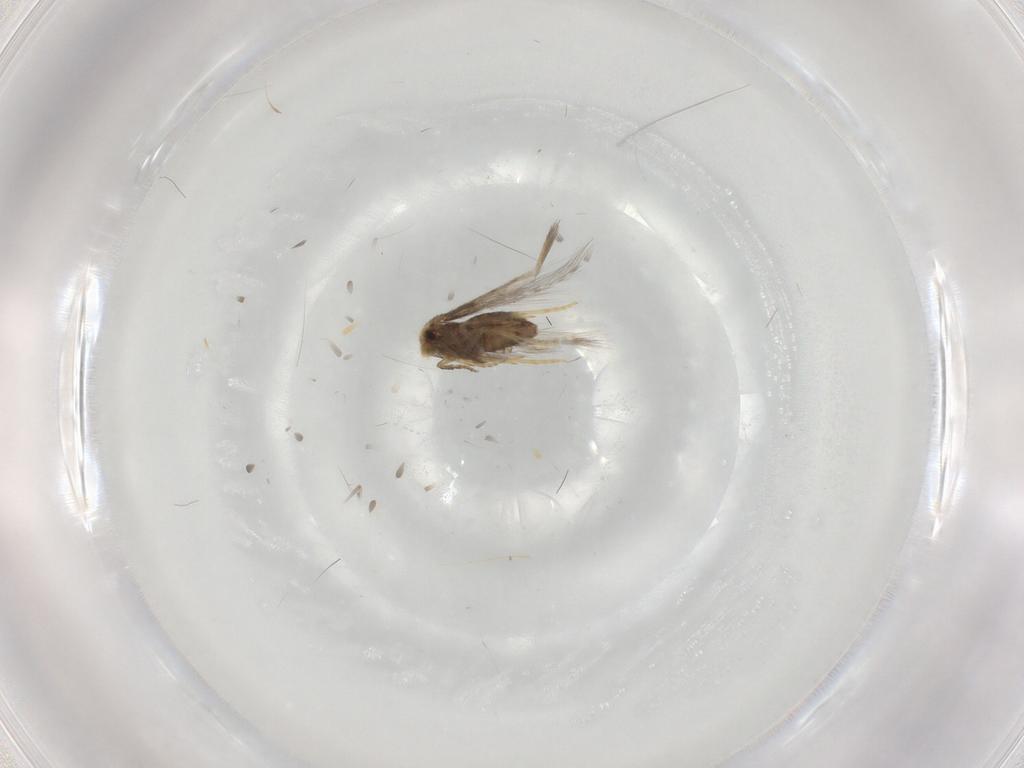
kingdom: Animalia
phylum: Arthropoda
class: Insecta
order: Lepidoptera
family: Nepticulidae
